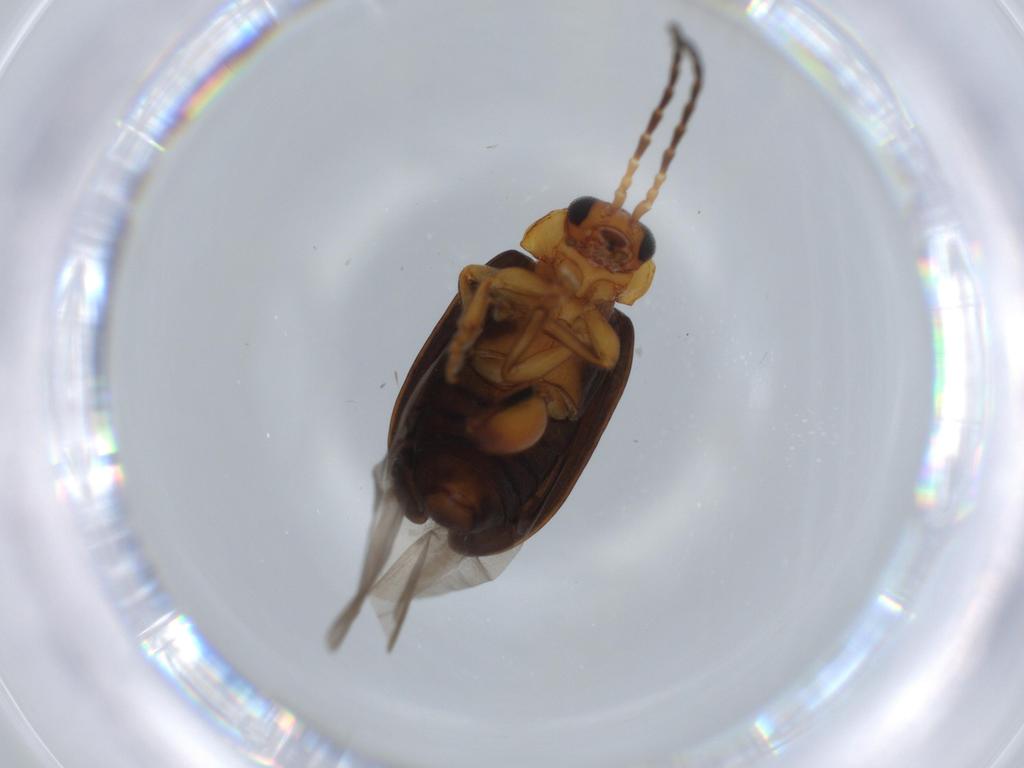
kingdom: Animalia
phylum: Arthropoda
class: Insecta
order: Coleoptera
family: Chrysomelidae
